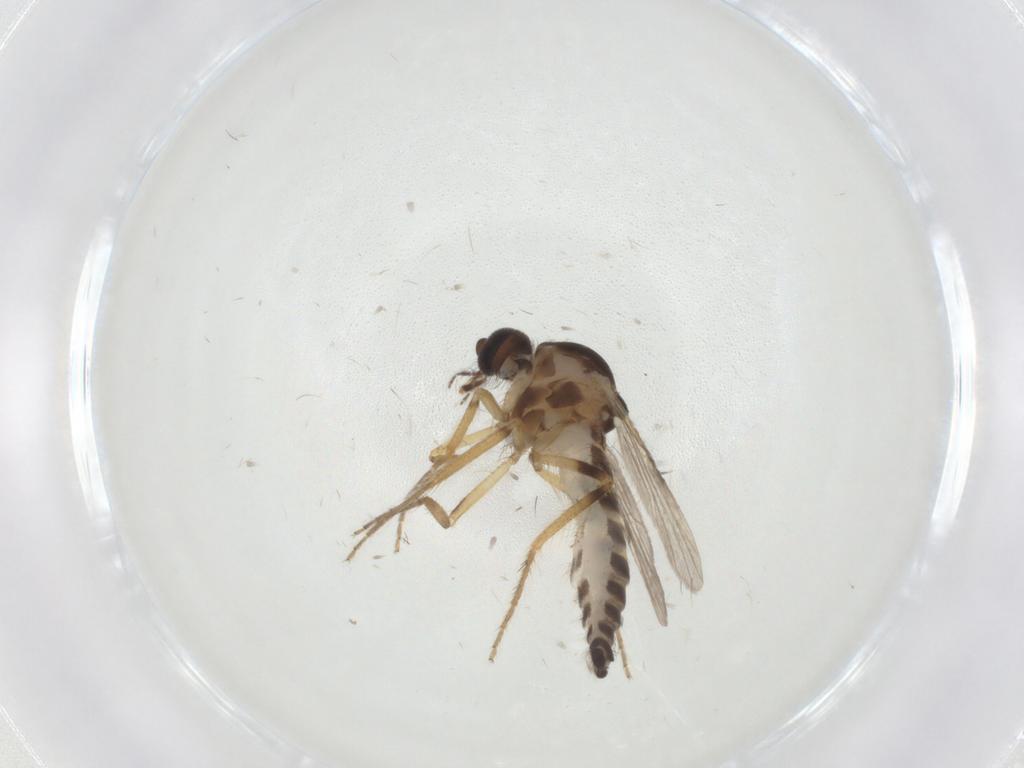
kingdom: Animalia
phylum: Arthropoda
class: Insecta
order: Diptera
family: Ceratopogonidae
